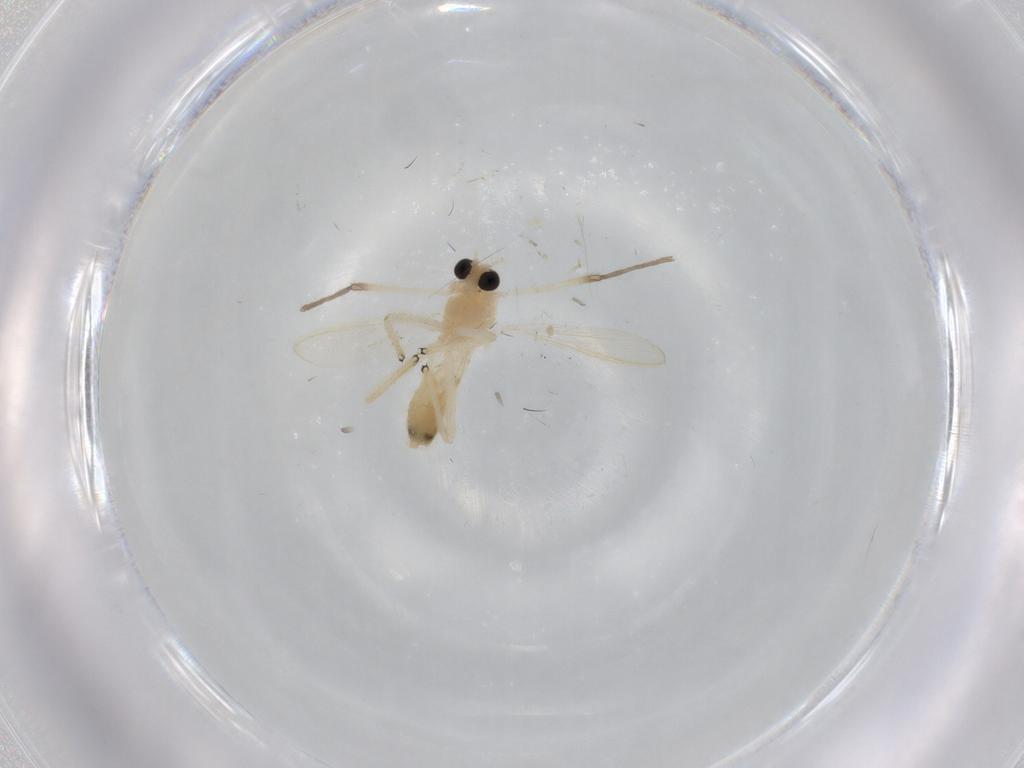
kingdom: Animalia
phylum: Arthropoda
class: Insecta
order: Diptera
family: Chironomidae
